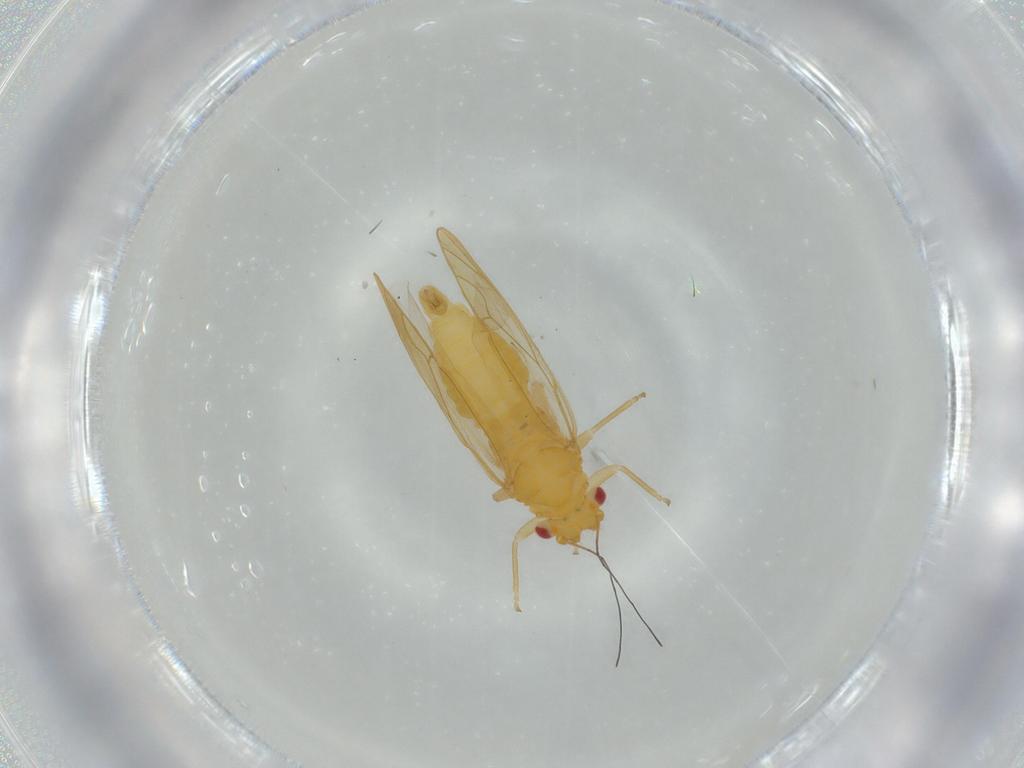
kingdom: Animalia
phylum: Arthropoda
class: Insecta
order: Hemiptera
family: Psyllidae
